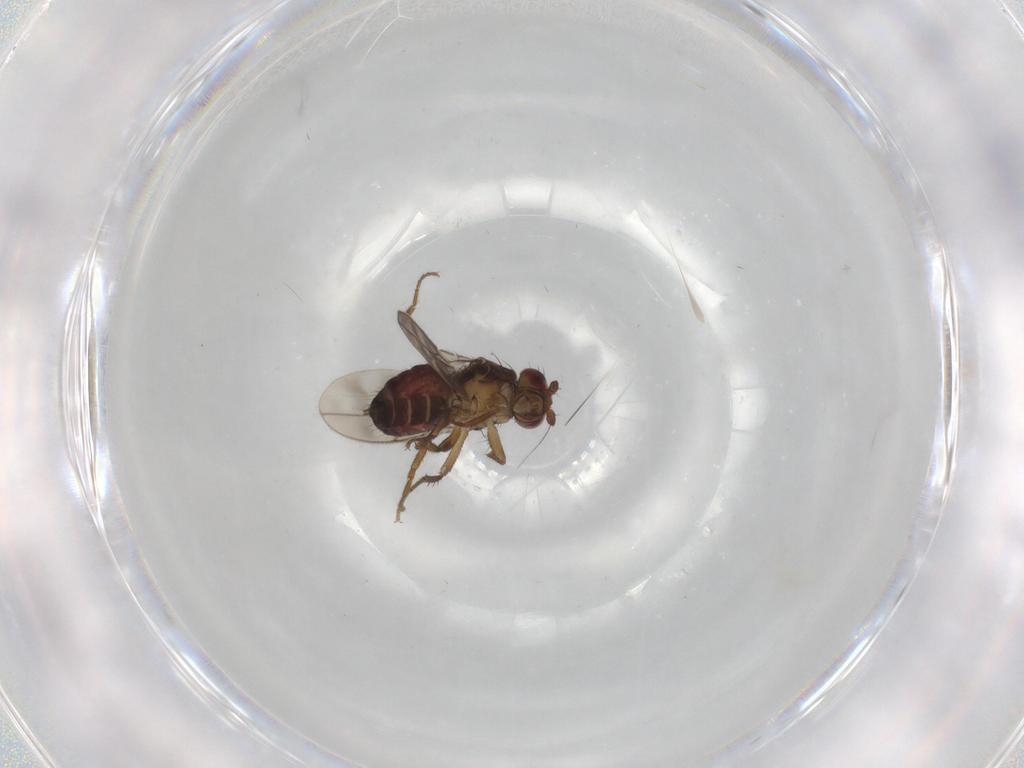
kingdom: Animalia
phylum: Arthropoda
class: Insecta
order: Diptera
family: Sphaeroceridae
